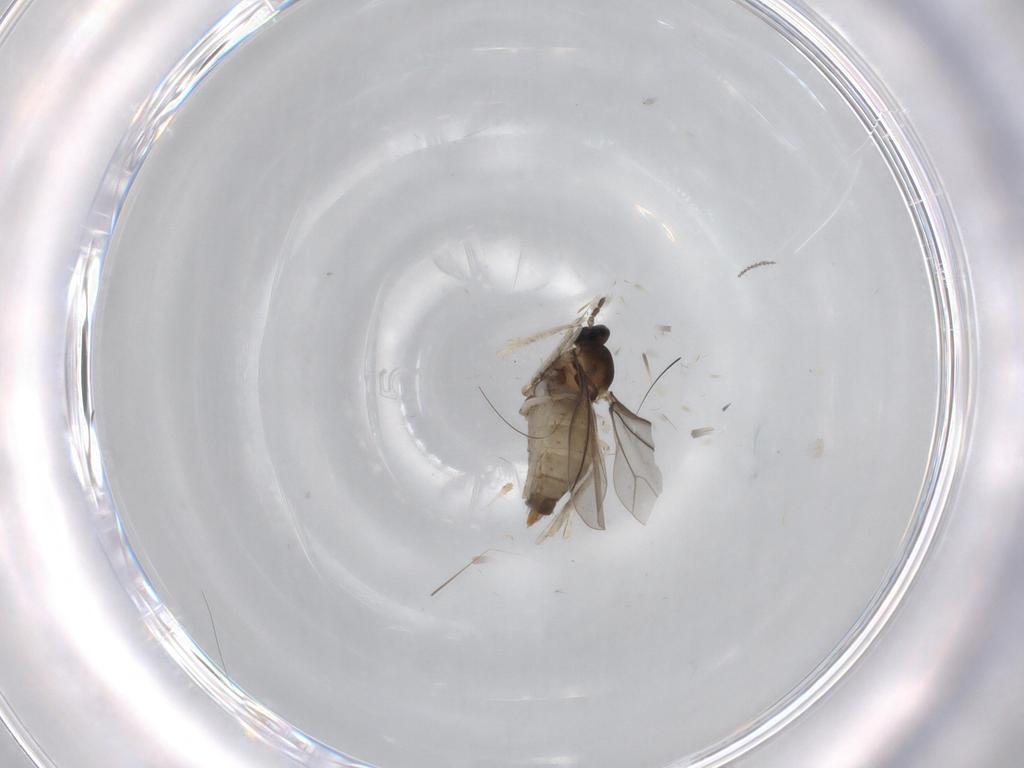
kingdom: Animalia
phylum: Arthropoda
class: Insecta
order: Diptera
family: Cecidomyiidae
